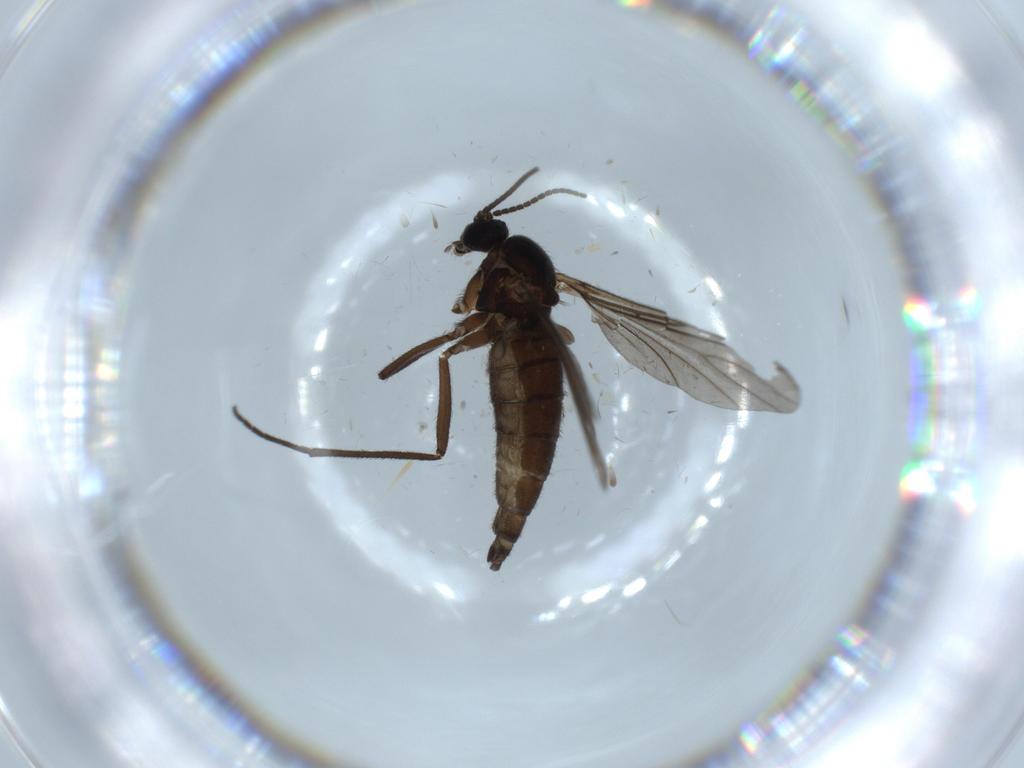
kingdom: Animalia
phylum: Arthropoda
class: Insecta
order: Diptera
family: Sciaridae
